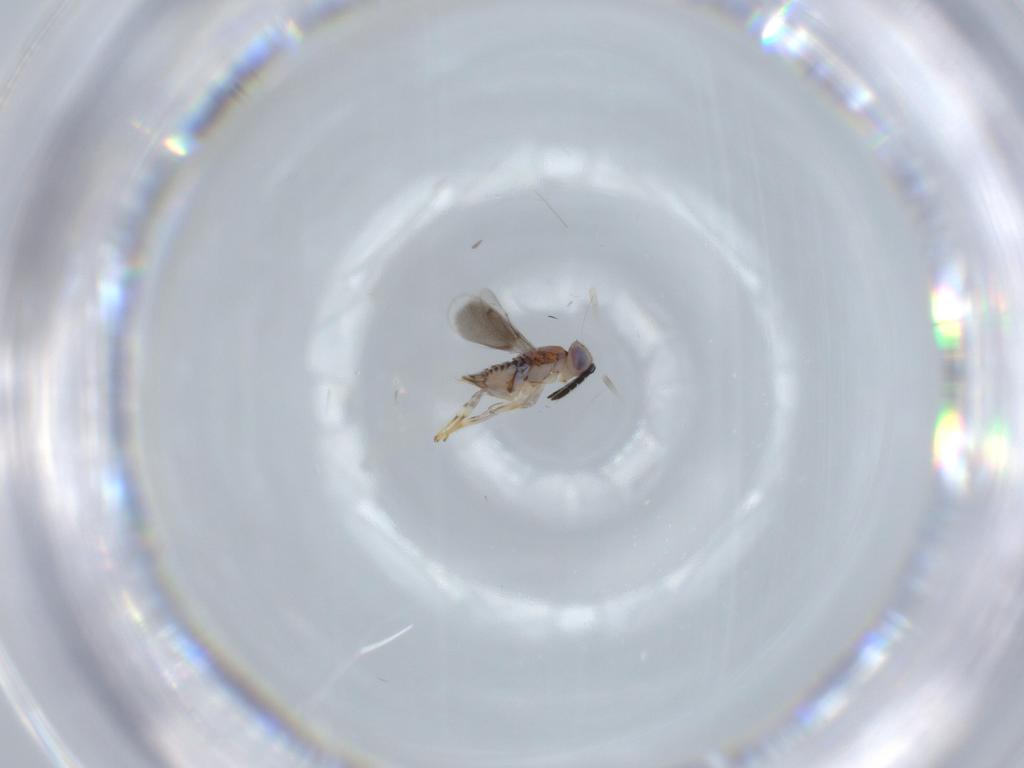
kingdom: Animalia
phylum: Arthropoda
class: Insecta
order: Hymenoptera
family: Aphelinidae
